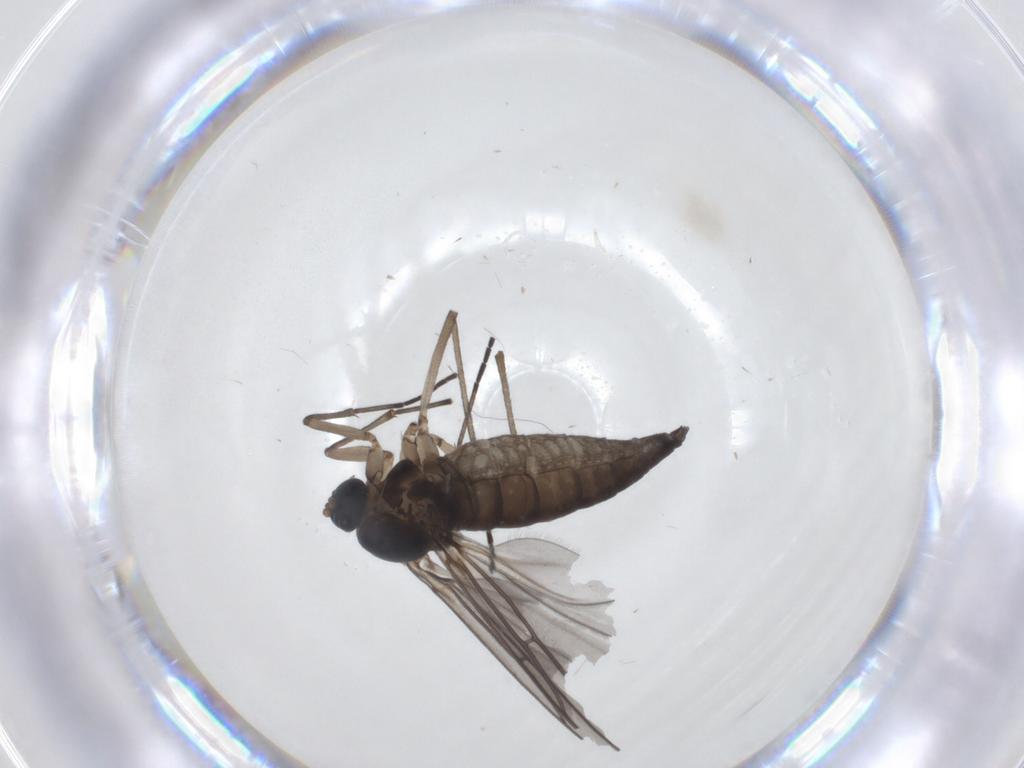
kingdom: Animalia
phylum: Arthropoda
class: Insecta
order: Diptera
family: Sciaridae
